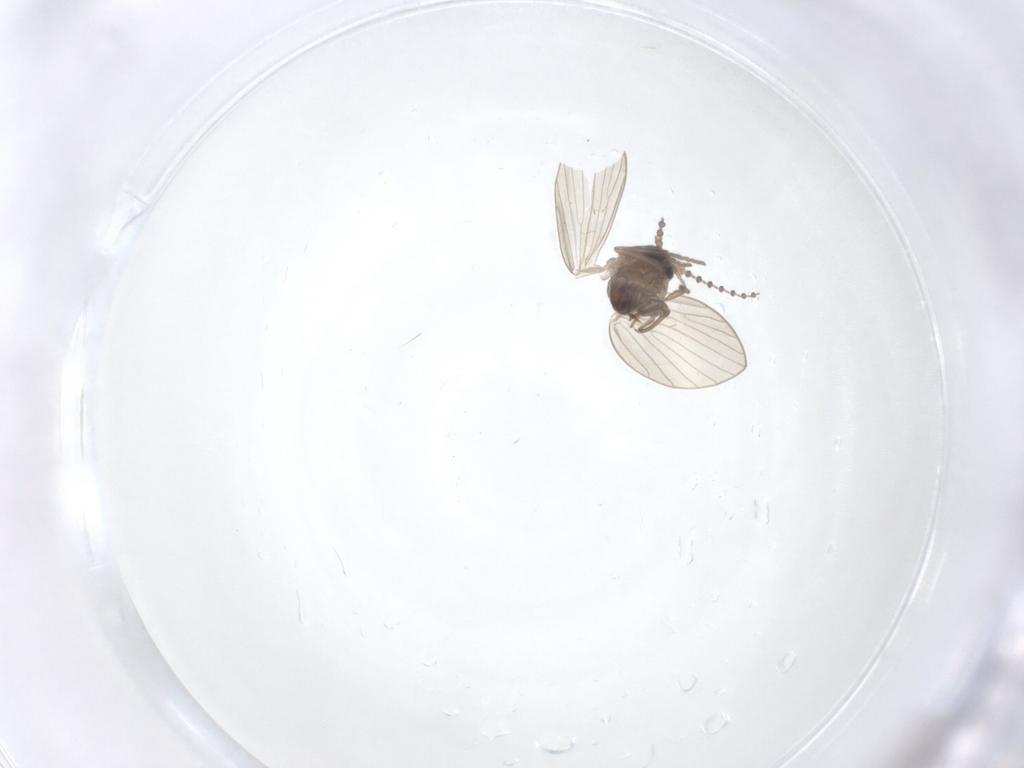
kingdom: Animalia
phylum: Arthropoda
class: Insecta
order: Diptera
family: Psychodidae
